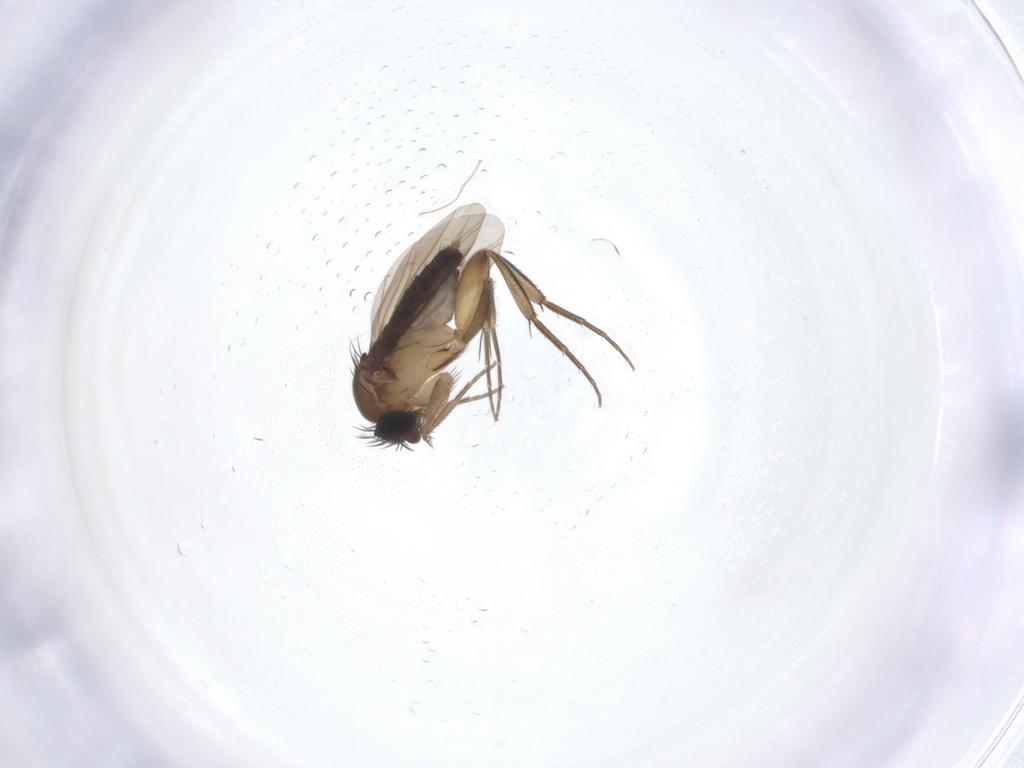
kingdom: Animalia
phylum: Arthropoda
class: Insecta
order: Diptera
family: Phoridae
